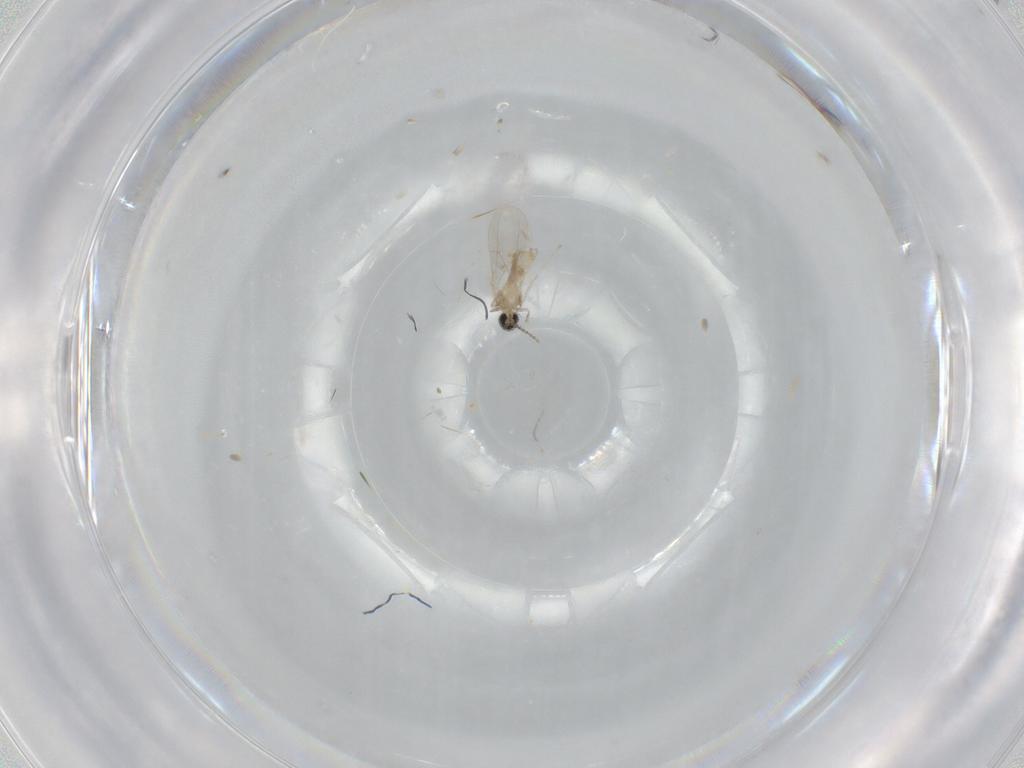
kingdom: Animalia
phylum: Arthropoda
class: Insecta
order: Diptera
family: Cecidomyiidae
